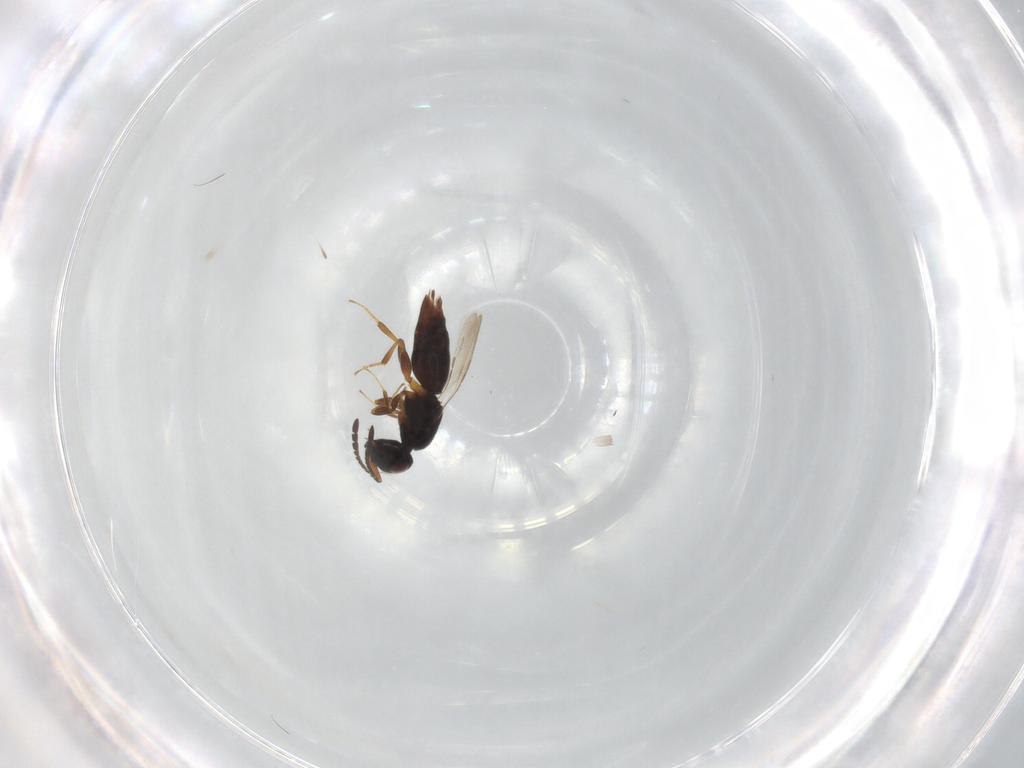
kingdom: Animalia
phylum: Arthropoda
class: Insecta
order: Hymenoptera
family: Ceraphronidae
